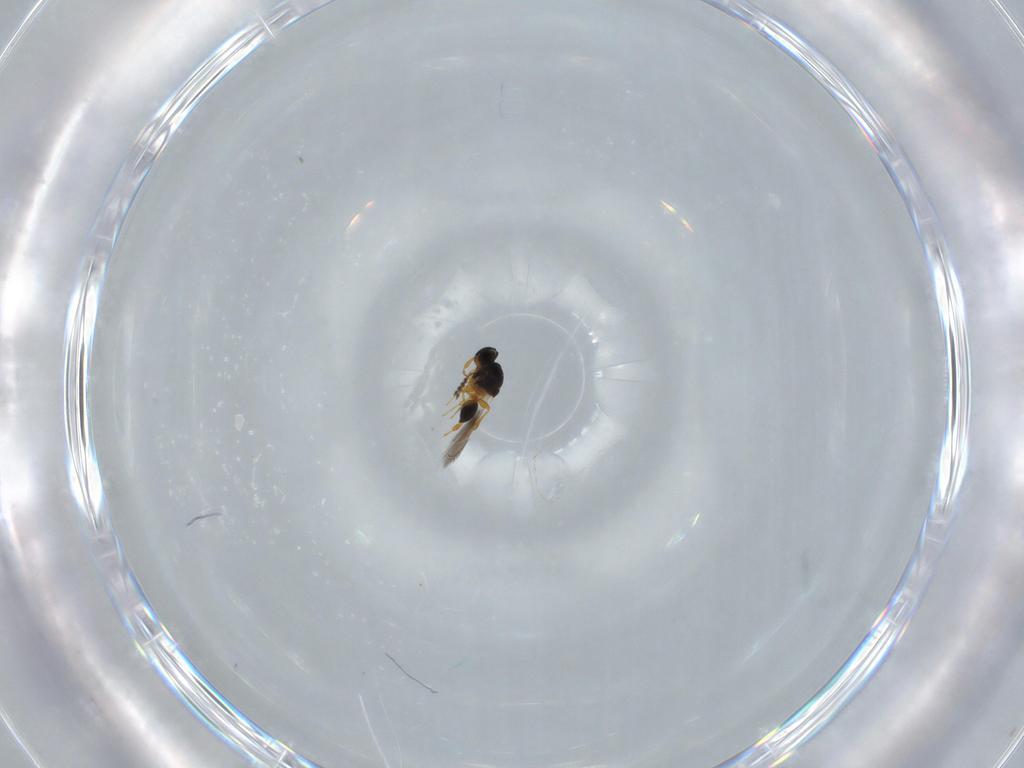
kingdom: Animalia
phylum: Arthropoda
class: Insecta
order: Hymenoptera
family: Platygastridae
